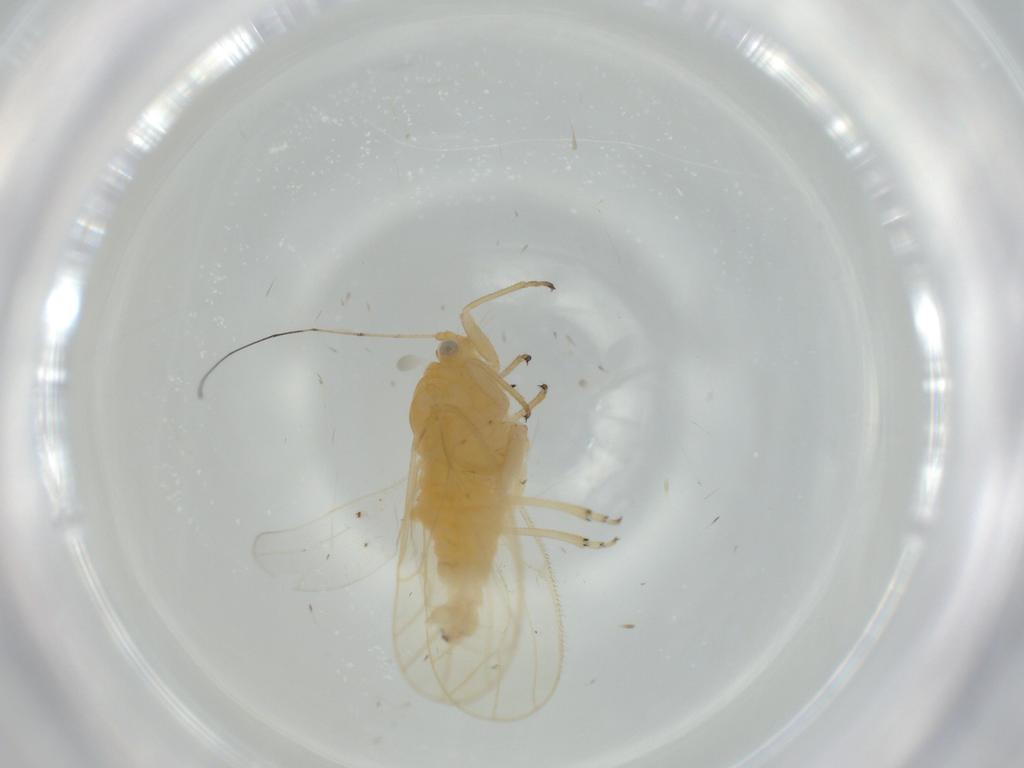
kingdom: Animalia
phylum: Arthropoda
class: Insecta
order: Hemiptera
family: Psyllidae
